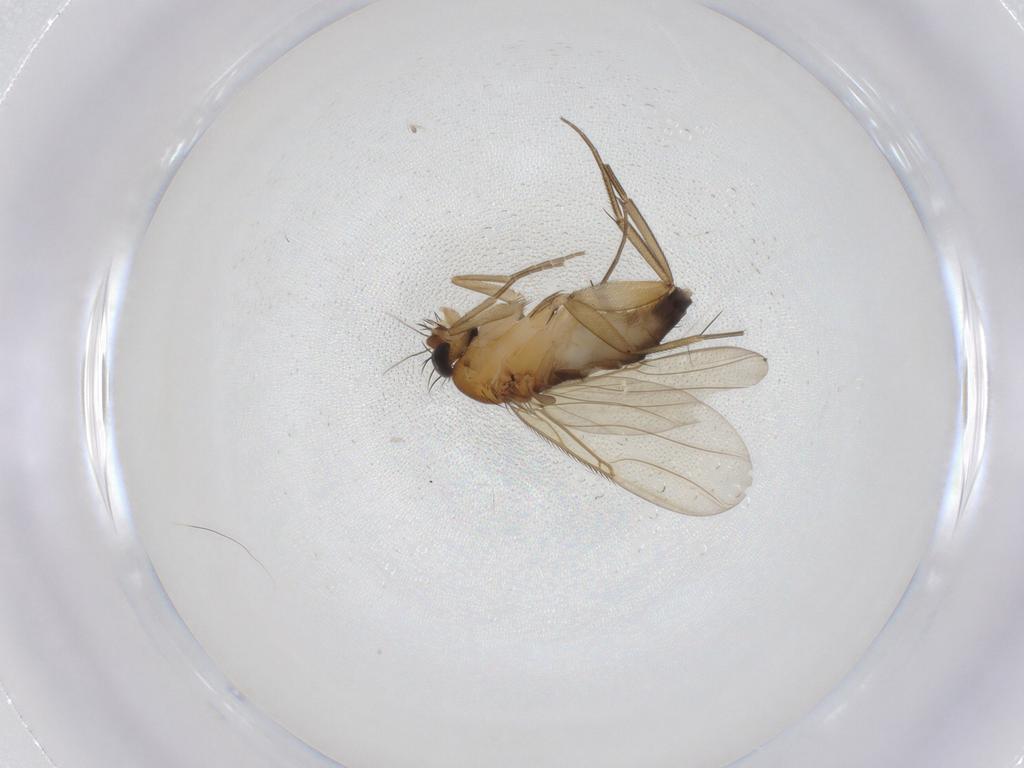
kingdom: Animalia
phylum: Arthropoda
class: Insecta
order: Diptera
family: Phoridae
